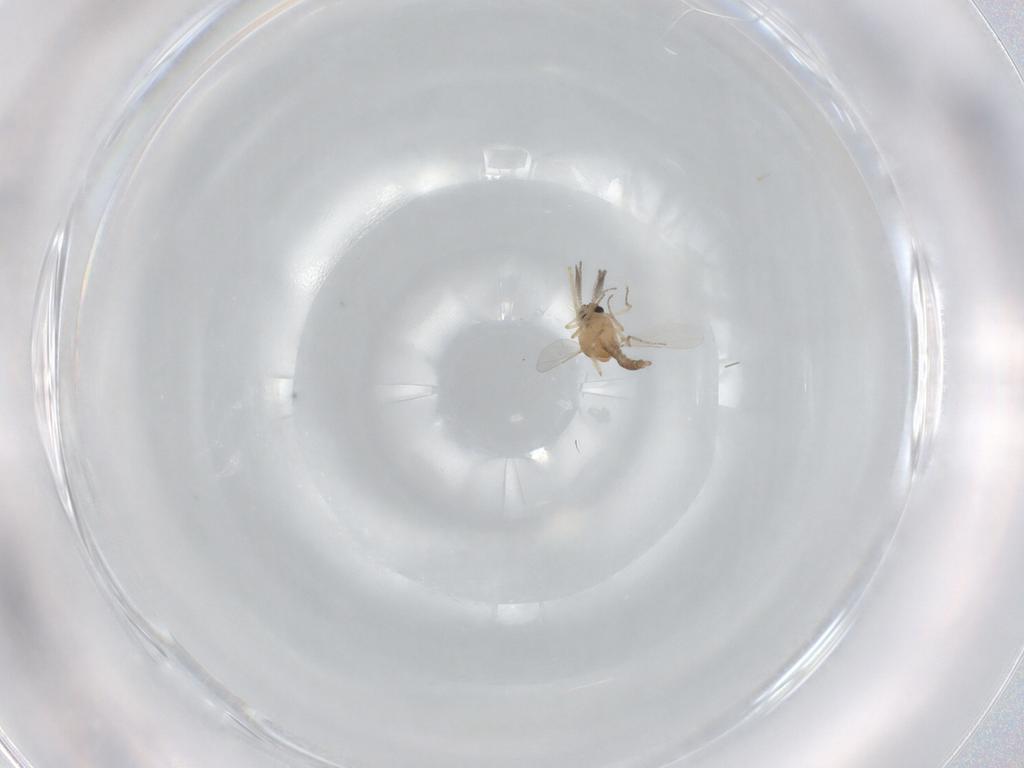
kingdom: Animalia
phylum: Arthropoda
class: Insecta
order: Diptera
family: Ceratopogonidae
